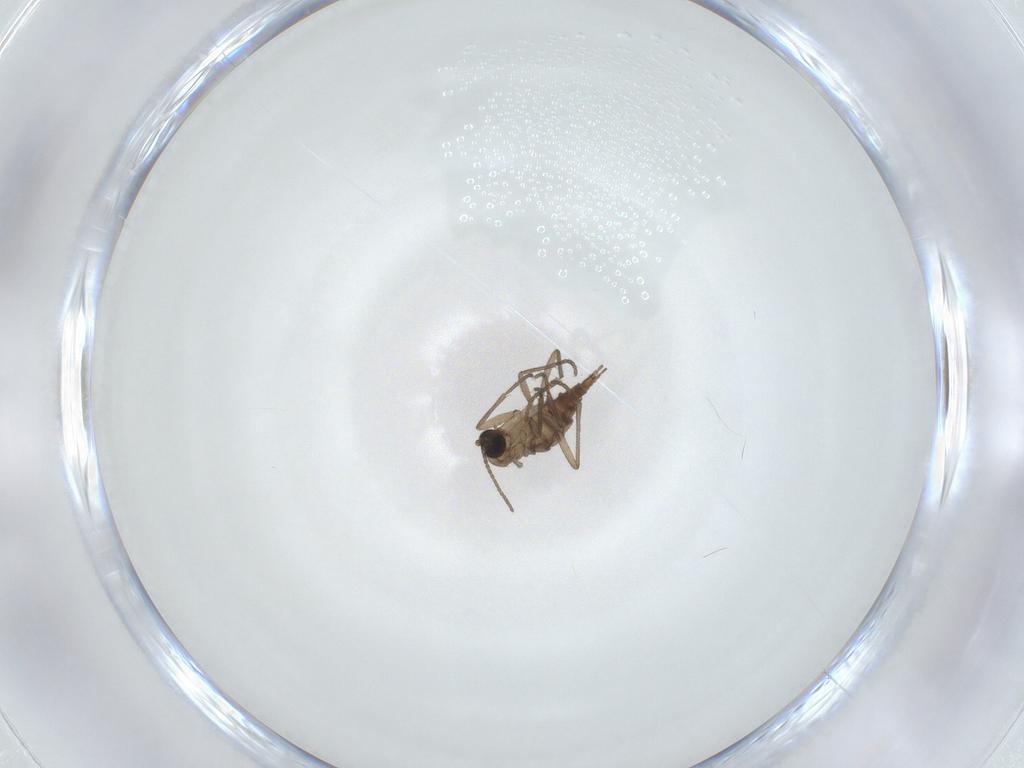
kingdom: Animalia
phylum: Arthropoda
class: Insecta
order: Diptera
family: Sciaridae
